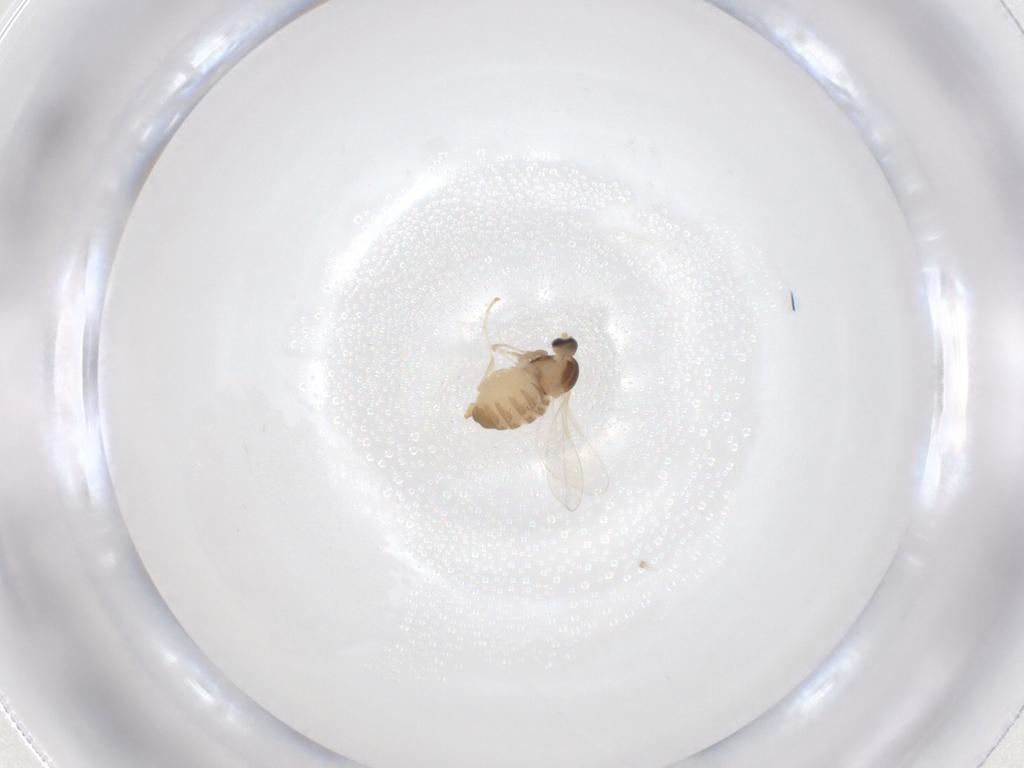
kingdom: Animalia
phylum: Arthropoda
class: Insecta
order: Diptera
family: Cecidomyiidae
